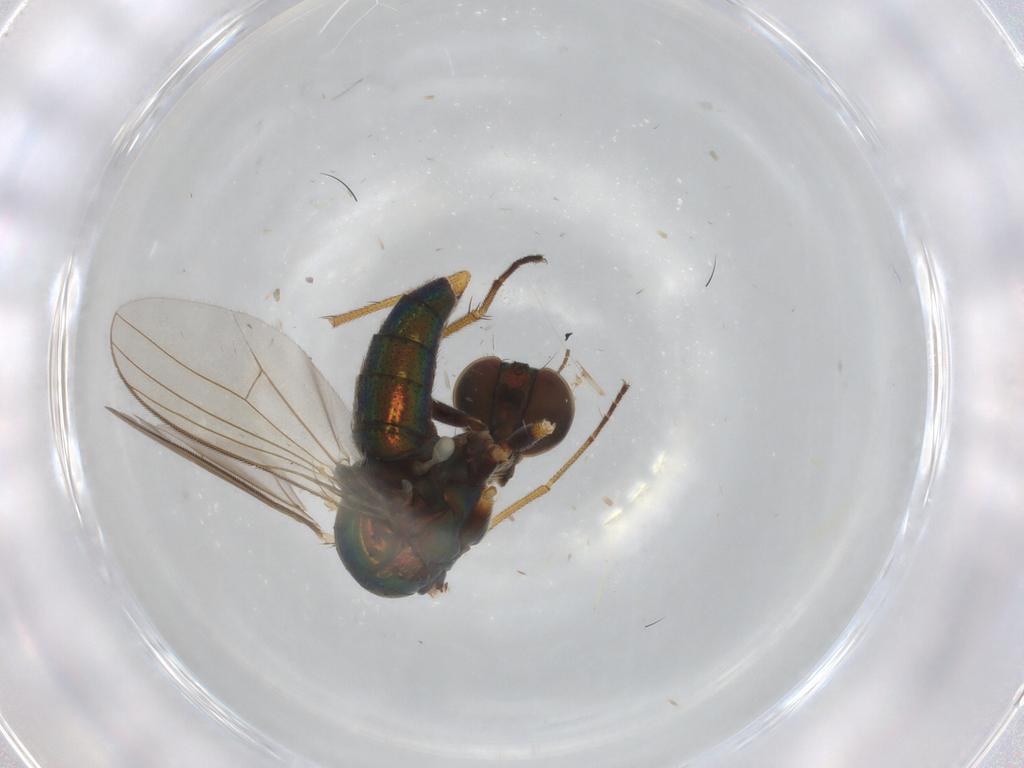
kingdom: Animalia
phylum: Arthropoda
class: Insecta
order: Diptera
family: Dolichopodidae
